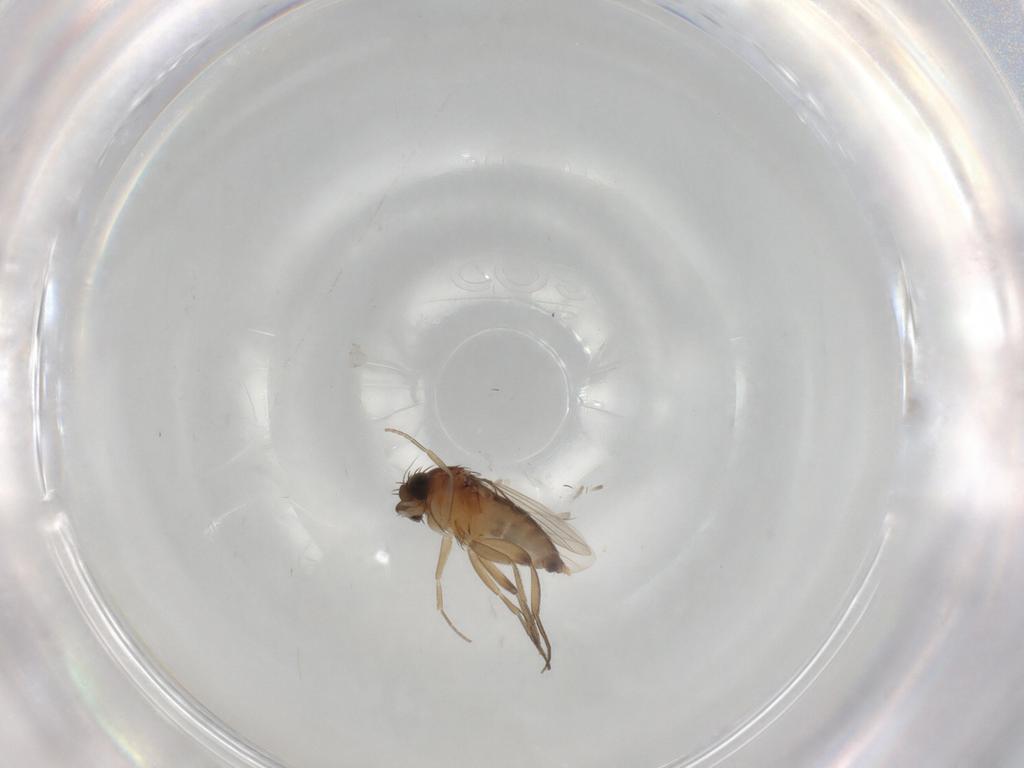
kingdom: Animalia
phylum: Arthropoda
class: Insecta
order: Diptera
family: Phoridae
